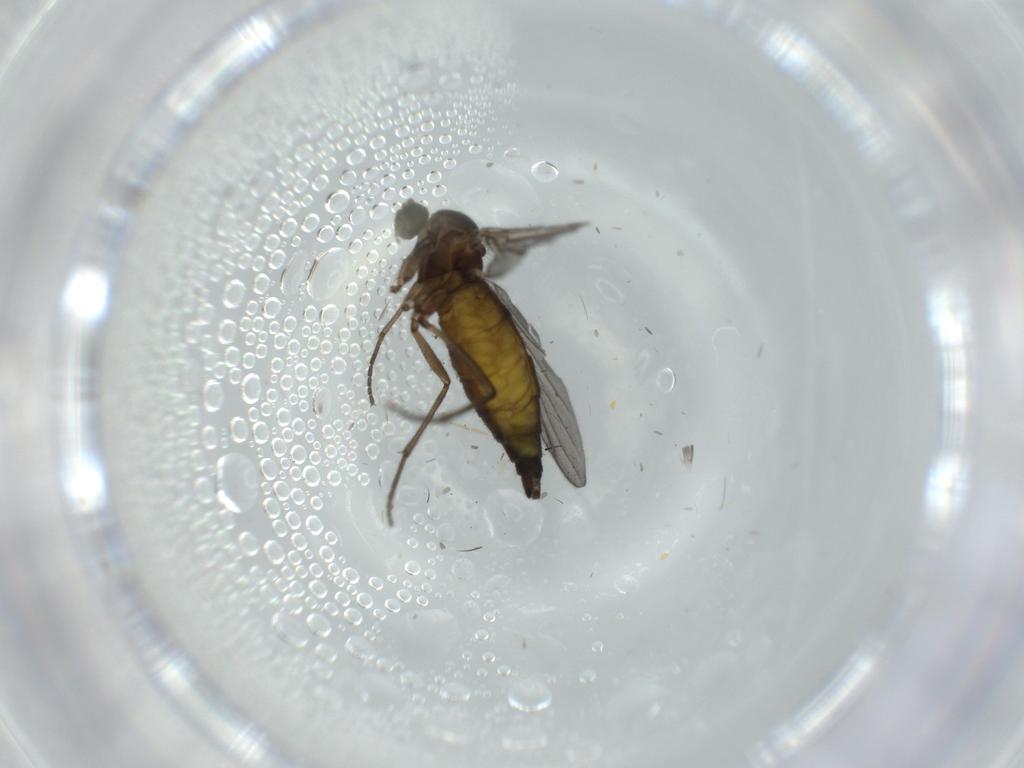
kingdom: Animalia
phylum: Arthropoda
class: Insecta
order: Diptera
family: Sciaridae
